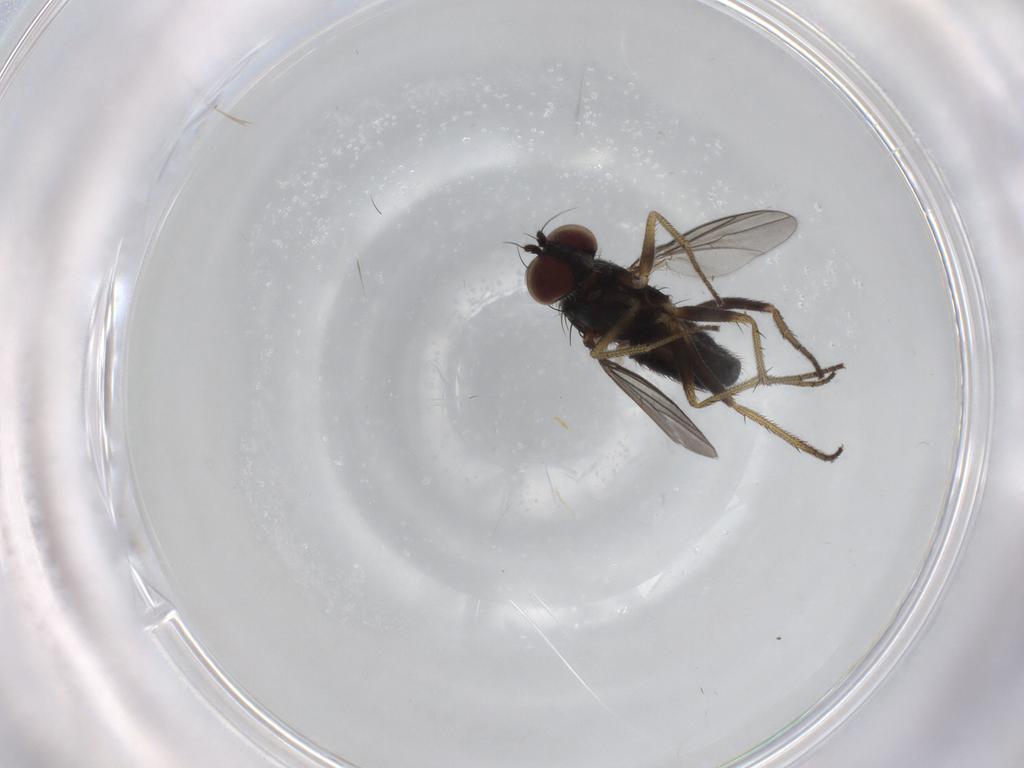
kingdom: Animalia
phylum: Arthropoda
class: Insecta
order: Diptera
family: Dolichopodidae
